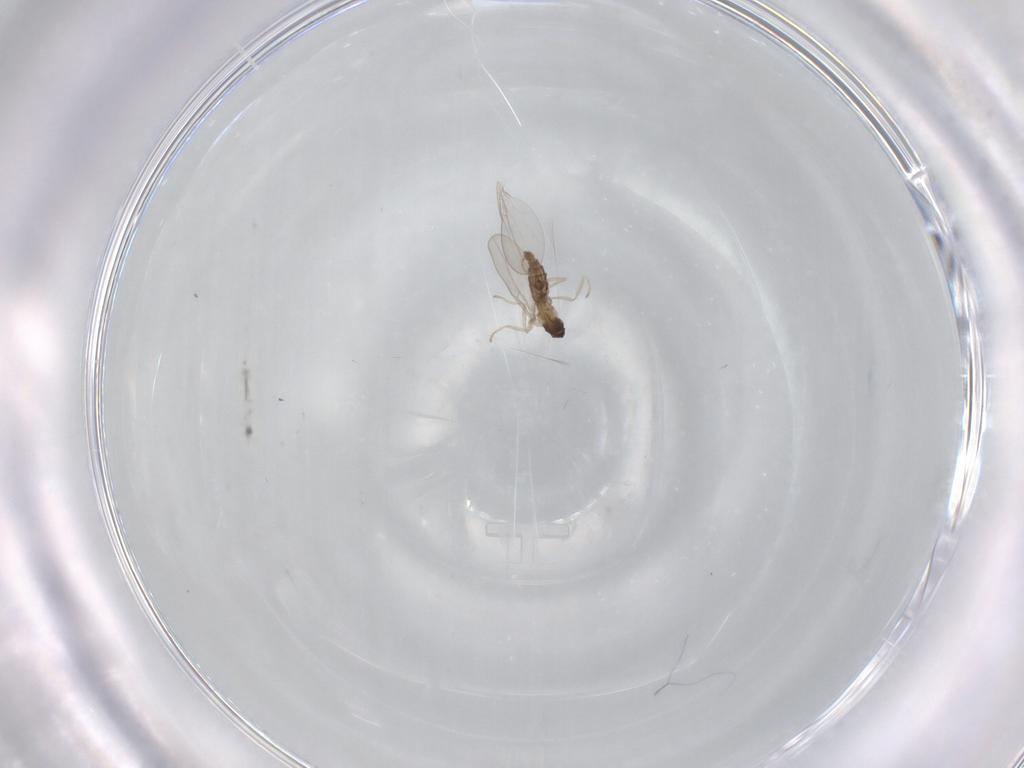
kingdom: Animalia
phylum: Arthropoda
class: Insecta
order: Diptera
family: Cecidomyiidae
